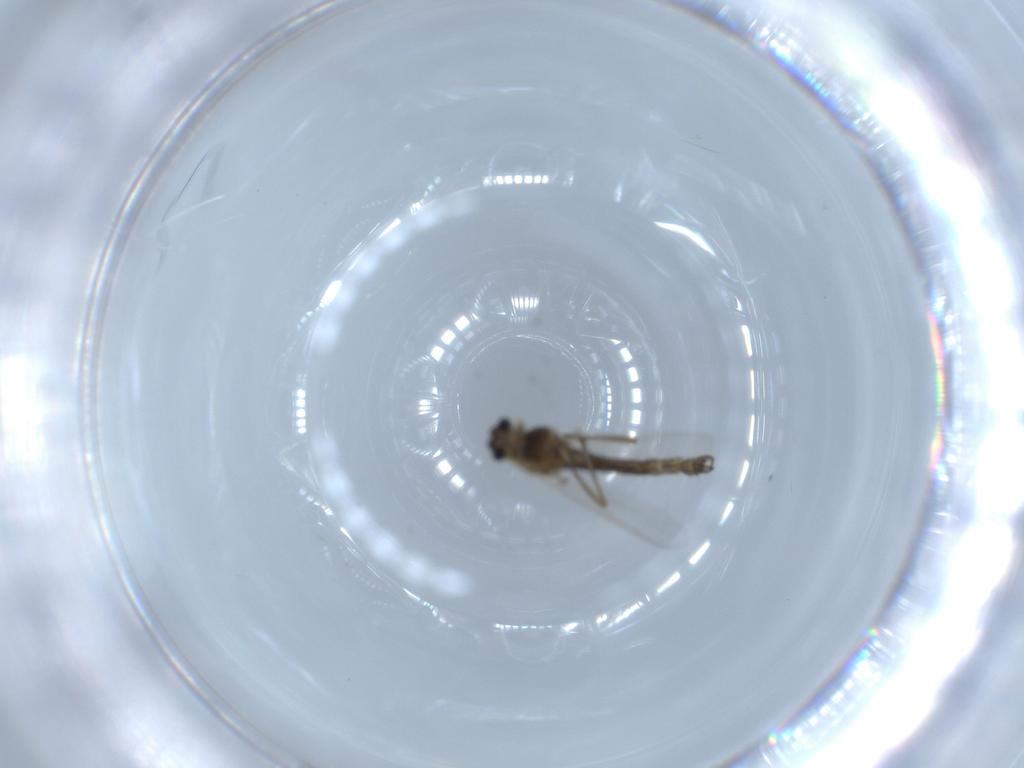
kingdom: Animalia
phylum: Arthropoda
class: Insecta
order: Diptera
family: Chironomidae
